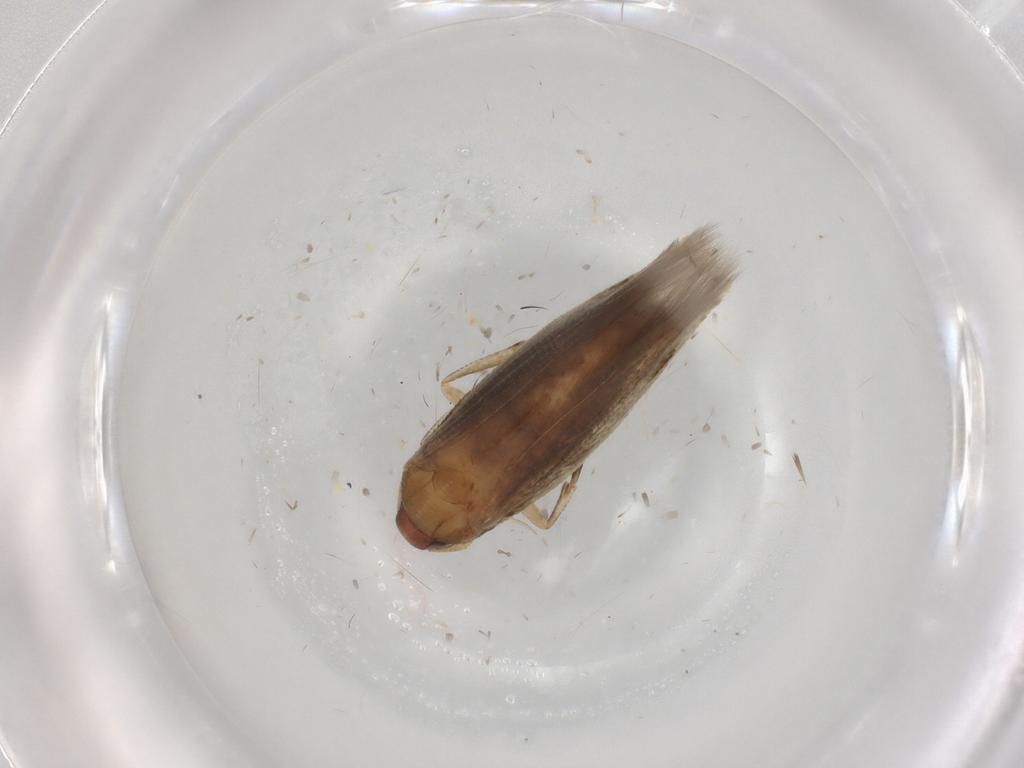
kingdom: Animalia
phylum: Arthropoda
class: Insecta
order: Lepidoptera
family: Cosmopterigidae
